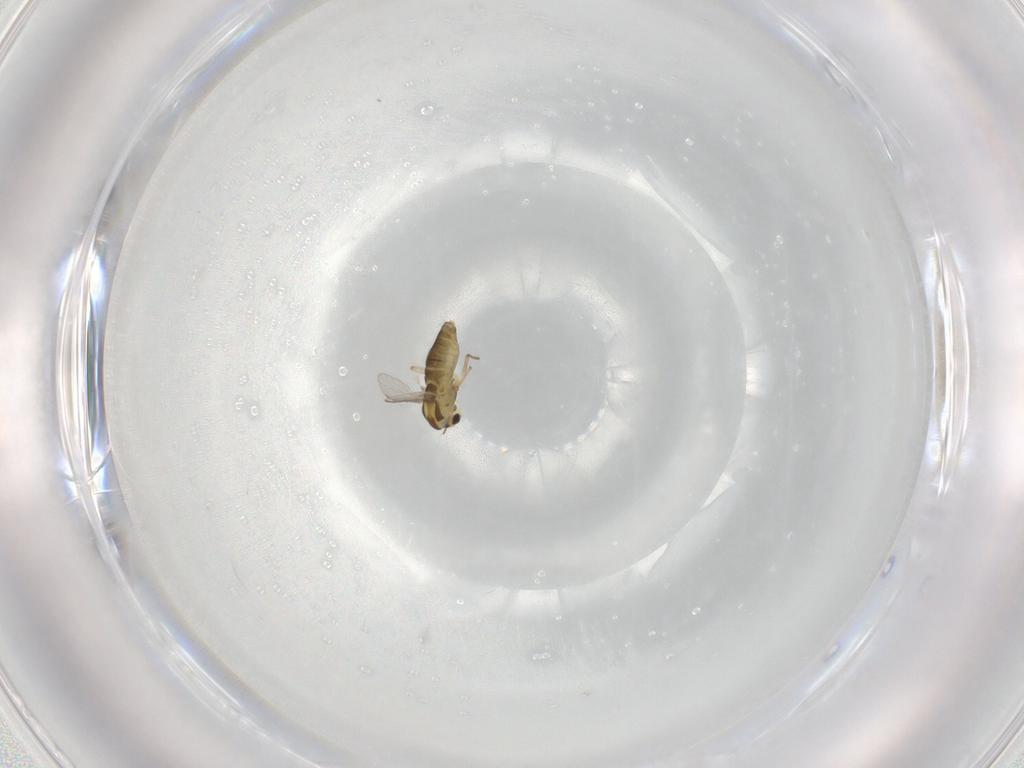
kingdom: Animalia
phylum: Arthropoda
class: Insecta
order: Diptera
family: Chironomidae
